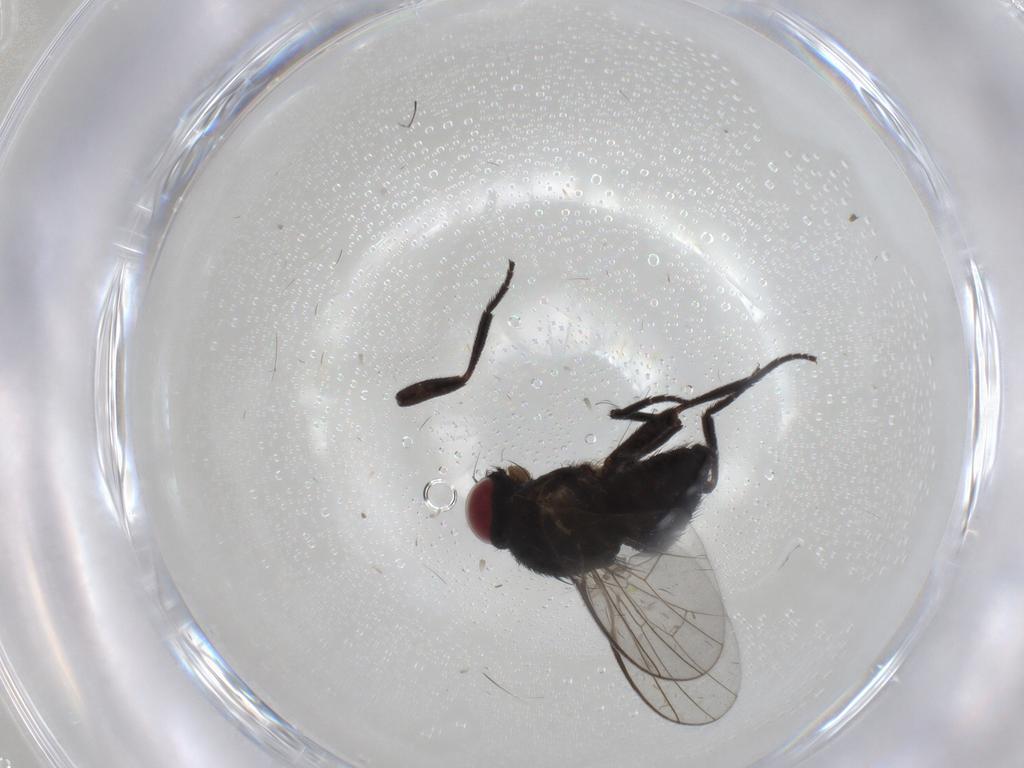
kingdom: Animalia
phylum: Arthropoda
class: Insecta
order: Diptera
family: Agromyzidae
